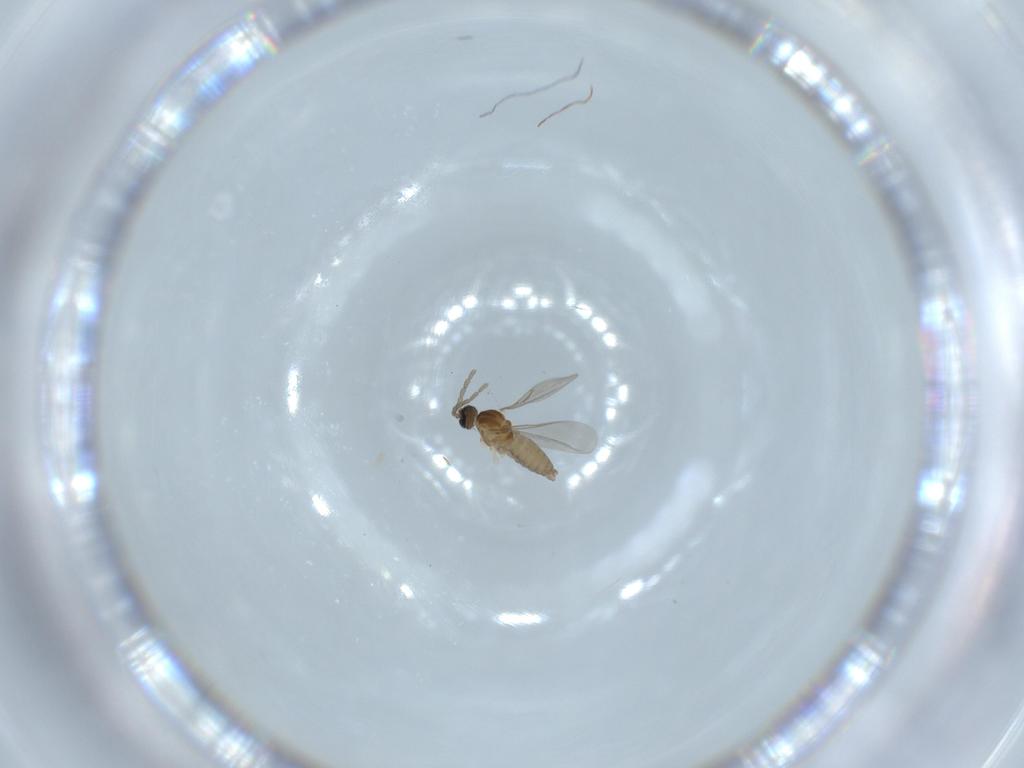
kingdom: Animalia
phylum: Arthropoda
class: Insecta
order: Diptera
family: Cecidomyiidae
